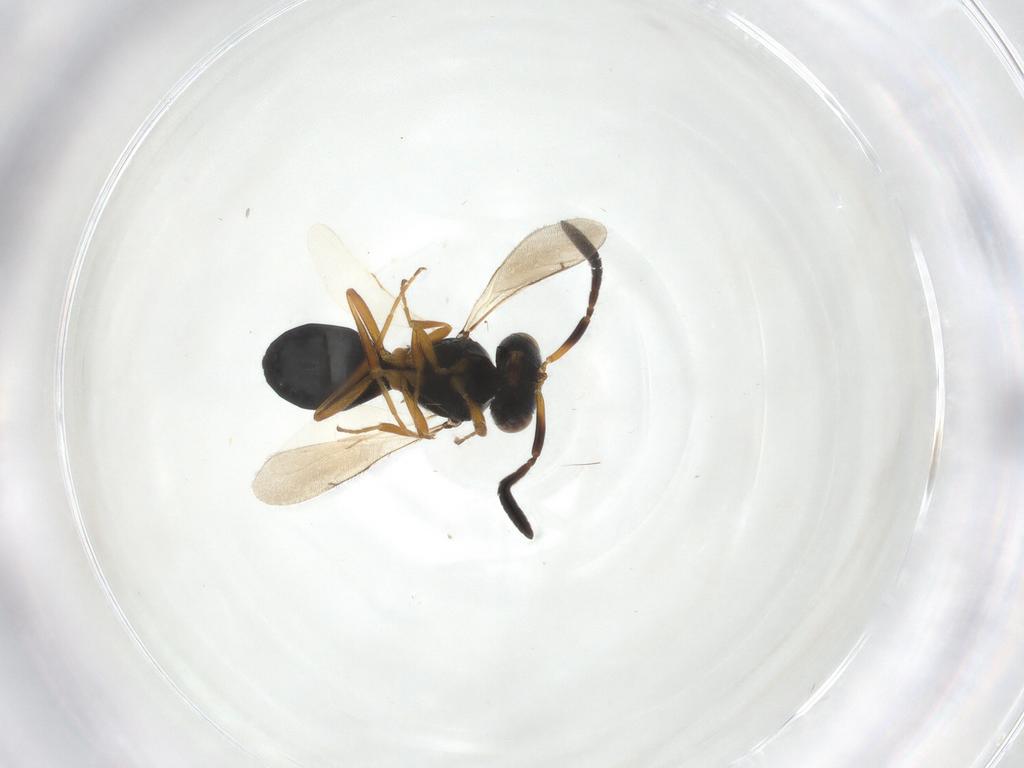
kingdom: Animalia
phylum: Arthropoda
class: Insecta
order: Hymenoptera
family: Scelionidae
